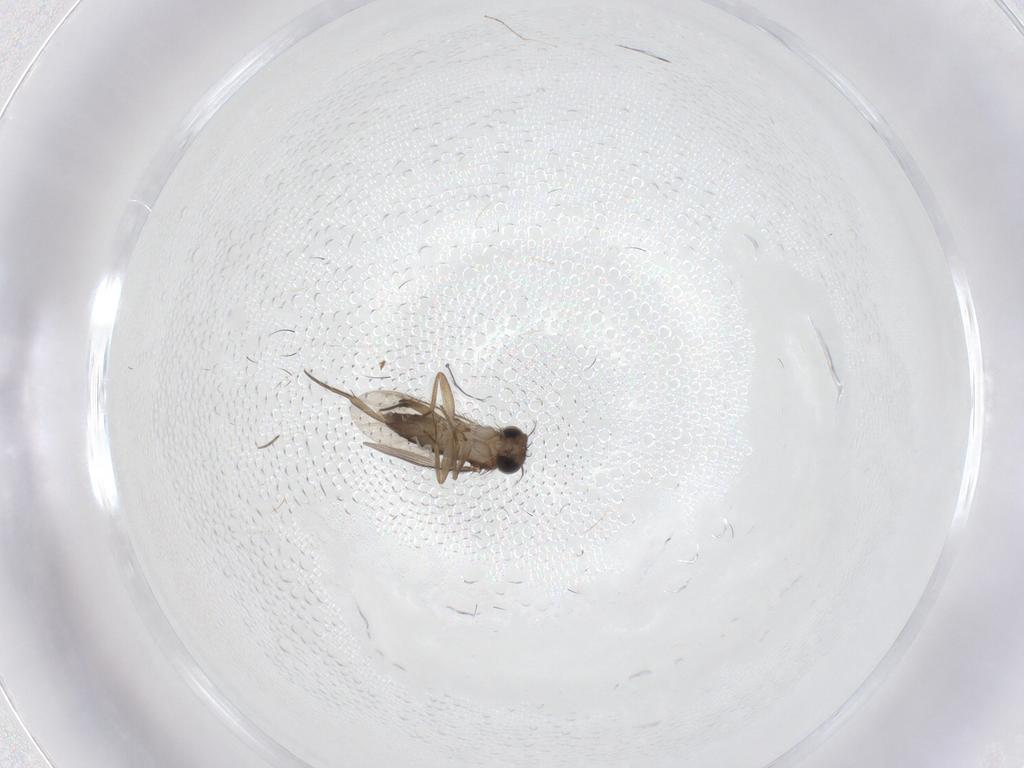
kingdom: Animalia
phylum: Arthropoda
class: Insecta
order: Diptera
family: Phoridae
